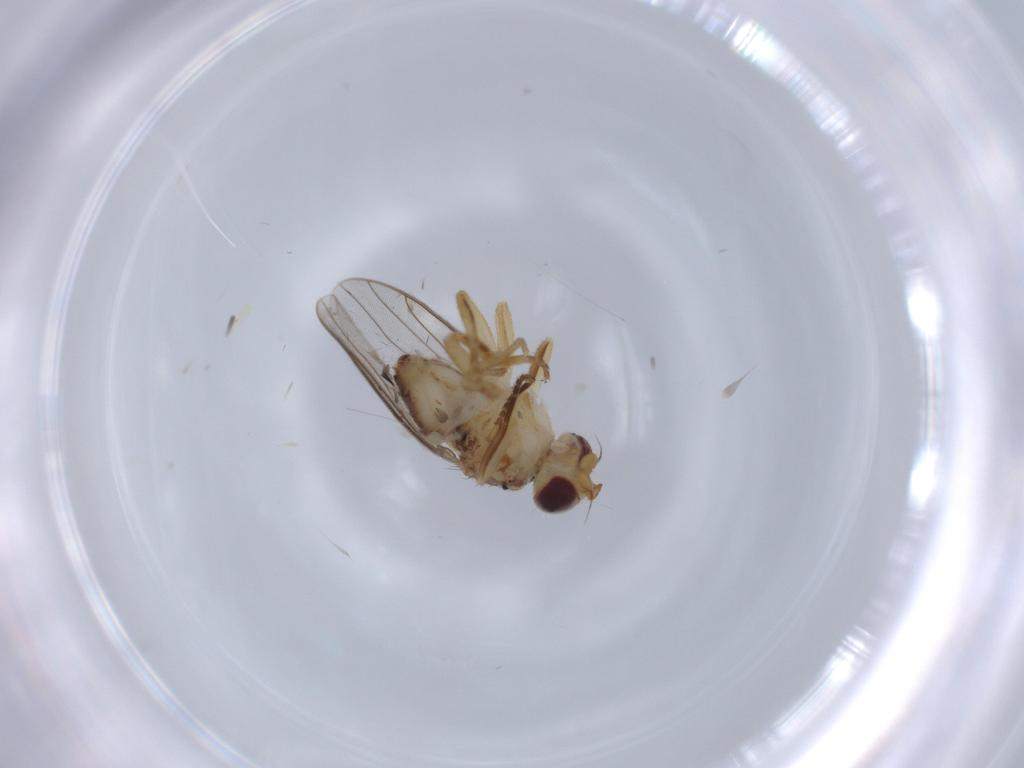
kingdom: Animalia
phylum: Arthropoda
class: Insecta
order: Diptera
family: Chloropidae
